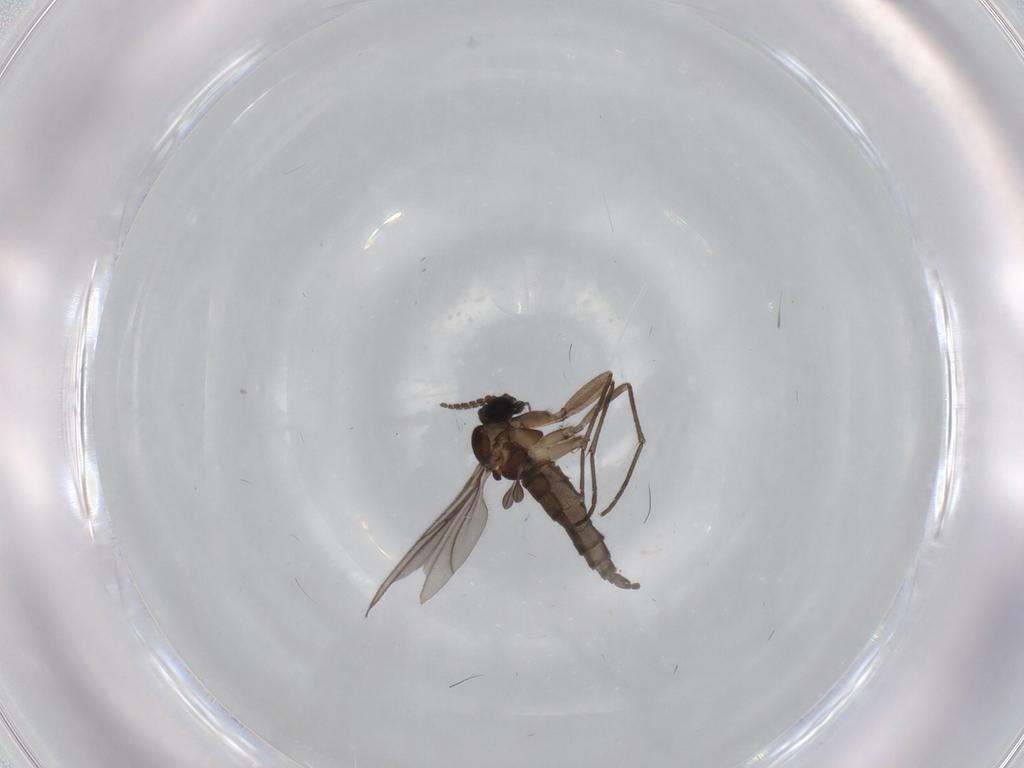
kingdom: Animalia
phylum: Arthropoda
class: Insecta
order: Diptera
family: Sciaridae
